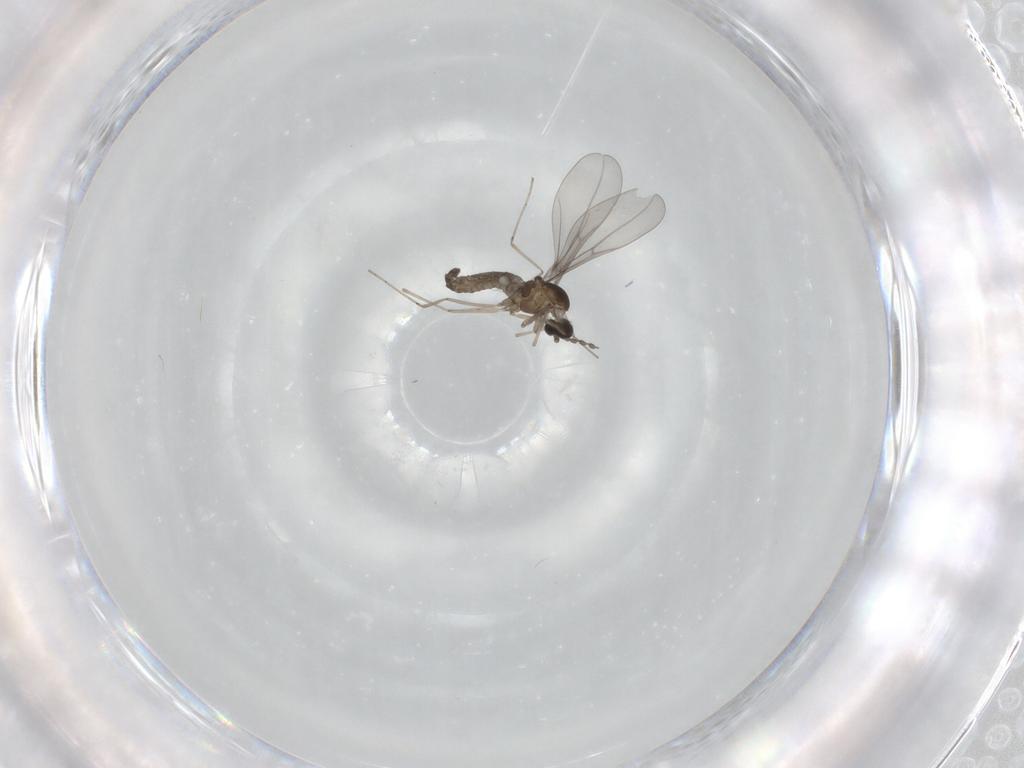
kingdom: Animalia
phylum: Arthropoda
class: Insecta
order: Diptera
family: Cecidomyiidae
